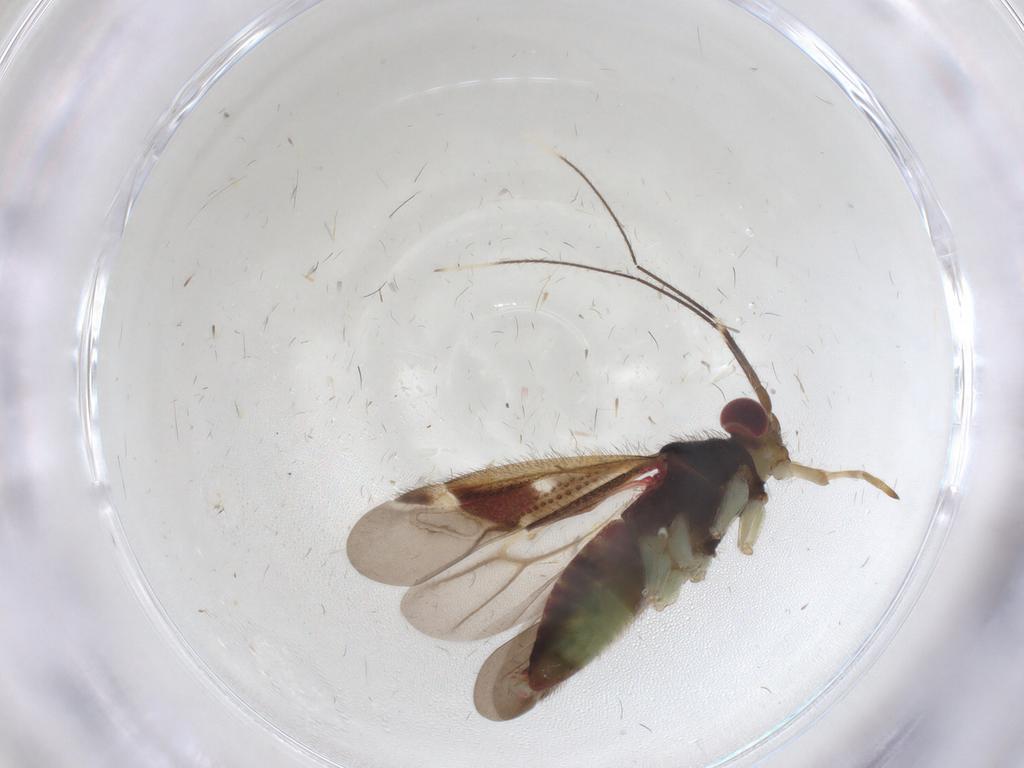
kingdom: Animalia
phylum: Arthropoda
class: Insecta
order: Hemiptera
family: Miridae
